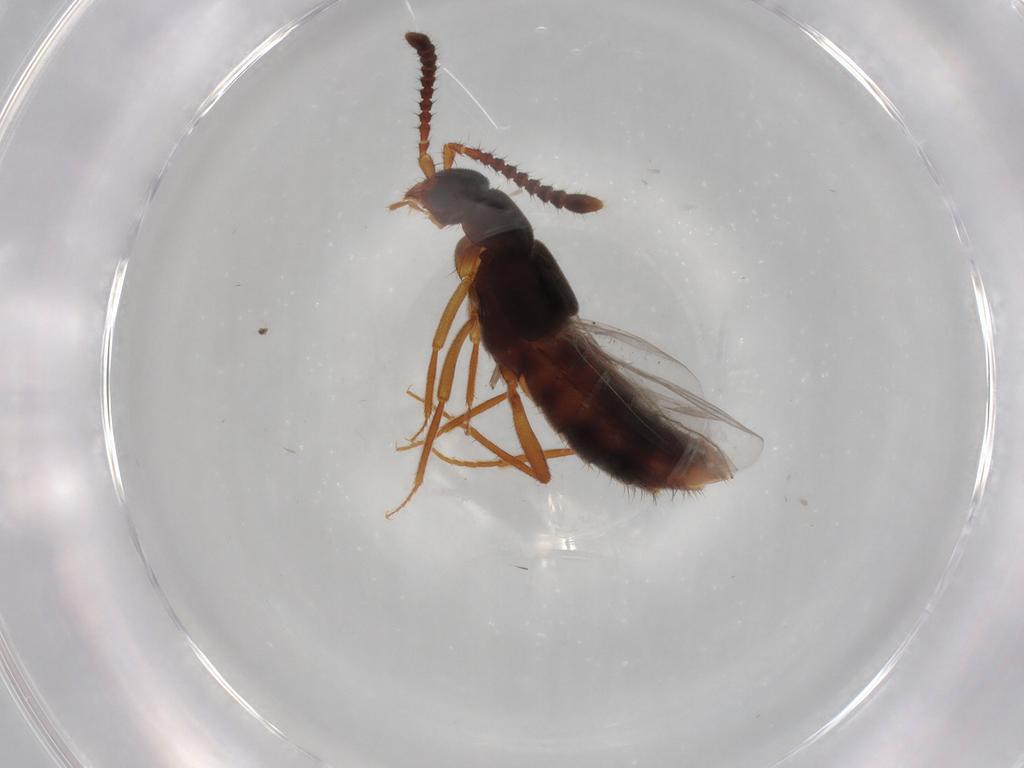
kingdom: Animalia
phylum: Arthropoda
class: Insecta
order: Coleoptera
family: Staphylinidae
